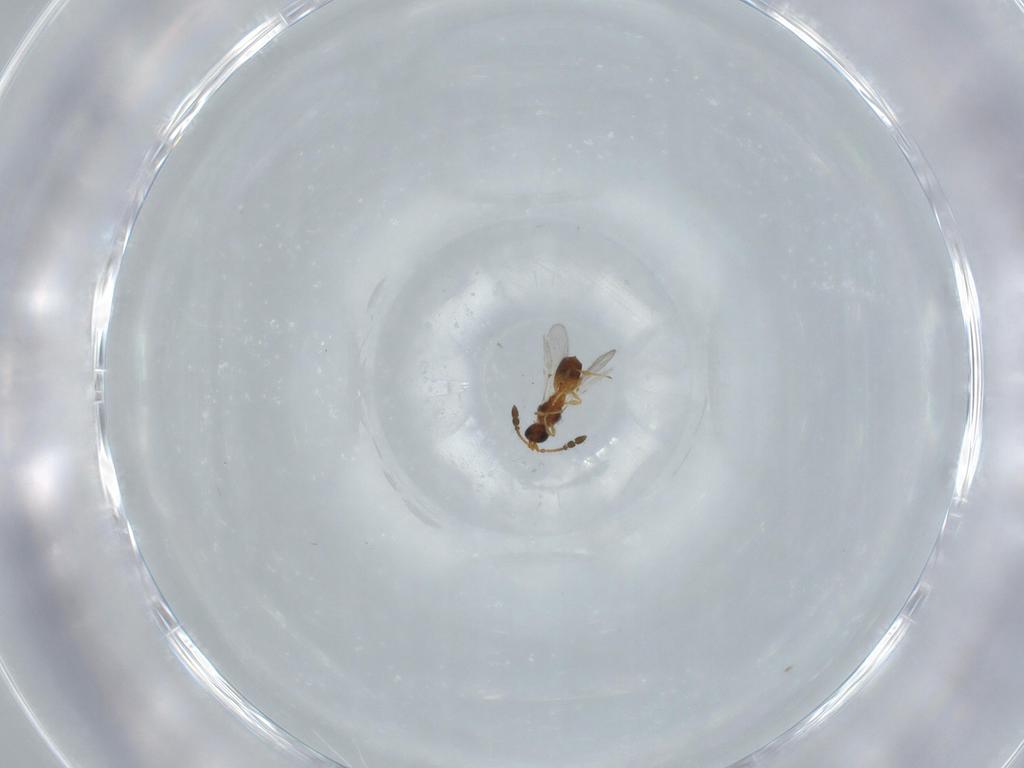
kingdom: Animalia
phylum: Arthropoda
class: Insecta
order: Hymenoptera
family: Diapriidae
